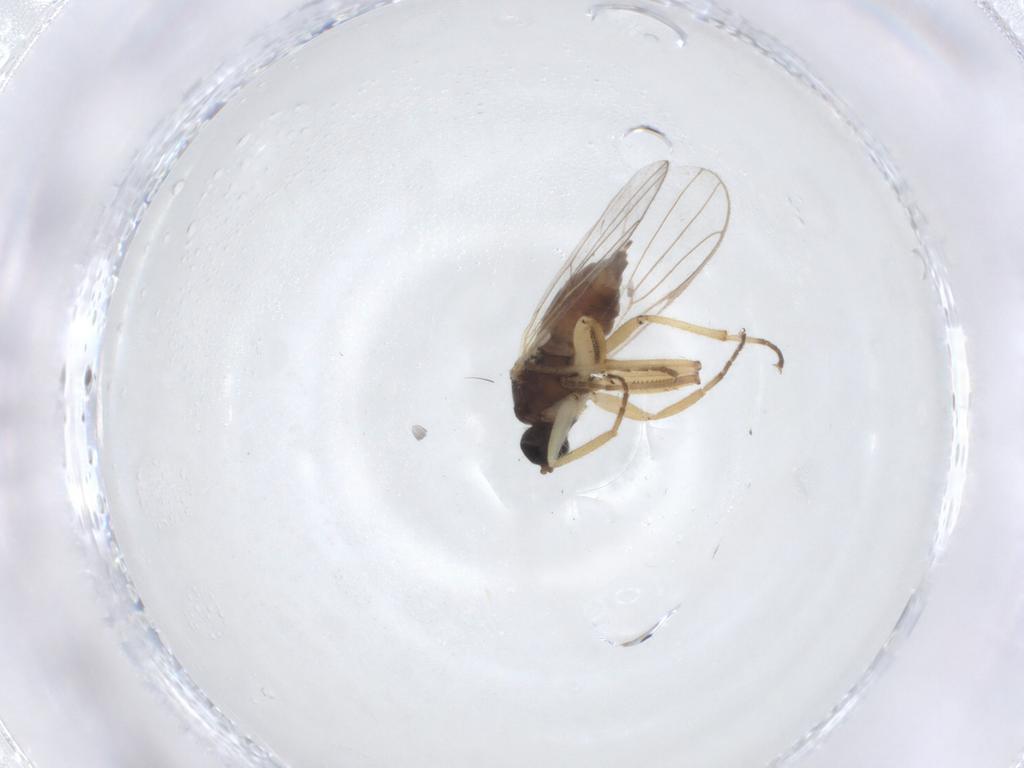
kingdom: Animalia
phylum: Arthropoda
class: Insecta
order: Diptera
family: Hybotidae
